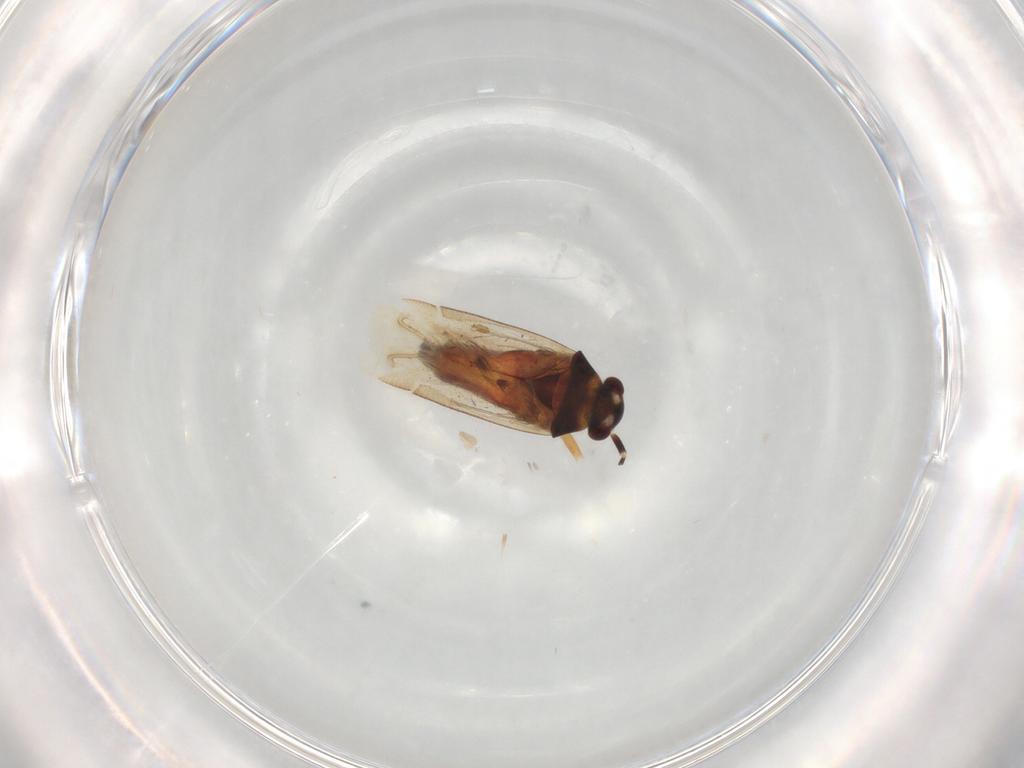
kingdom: Animalia
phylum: Arthropoda
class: Insecta
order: Hemiptera
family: Miridae
